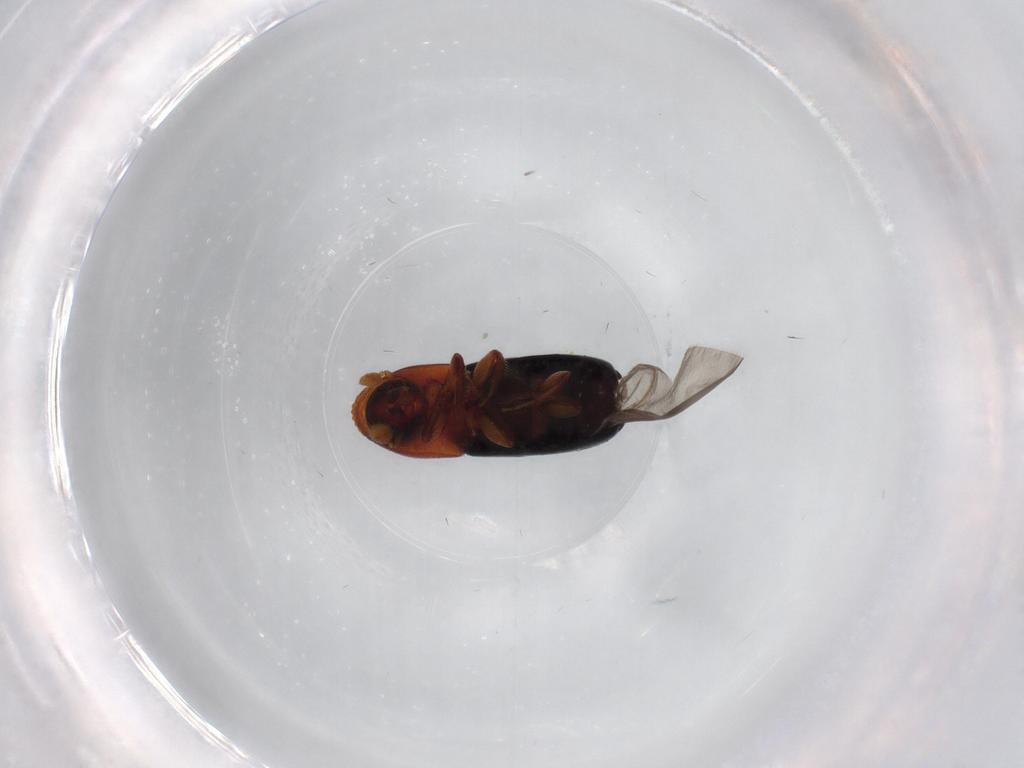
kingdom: Animalia
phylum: Arthropoda
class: Insecta
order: Coleoptera
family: Curculionidae
